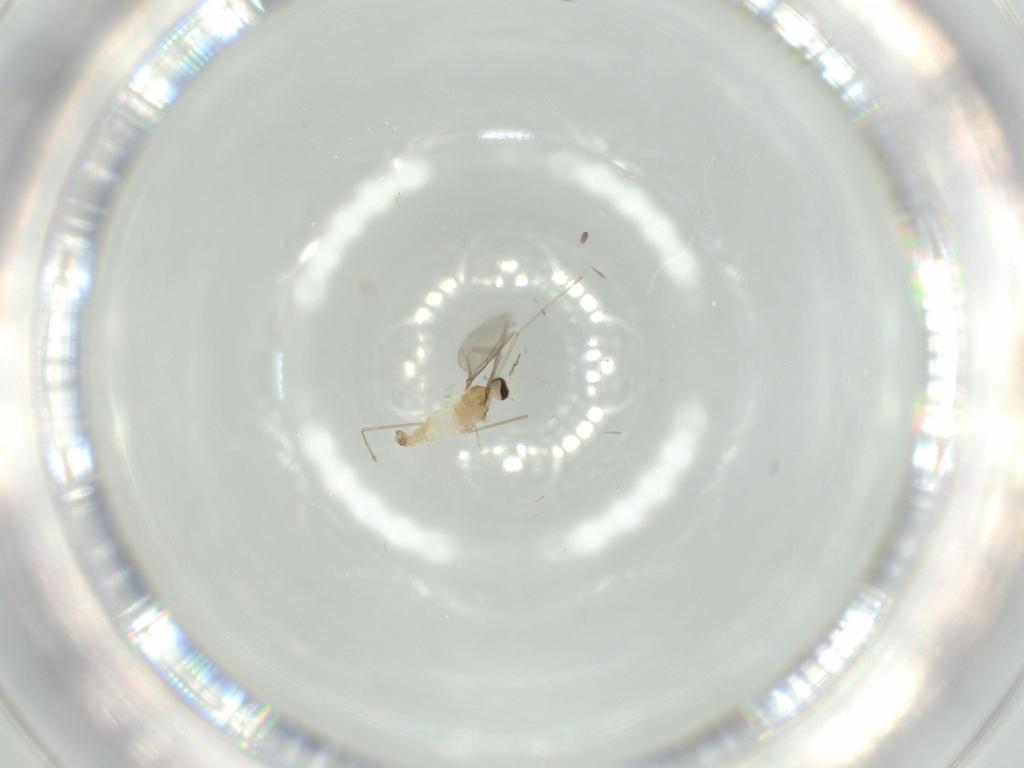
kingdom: Animalia
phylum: Arthropoda
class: Insecta
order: Diptera
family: Cecidomyiidae
